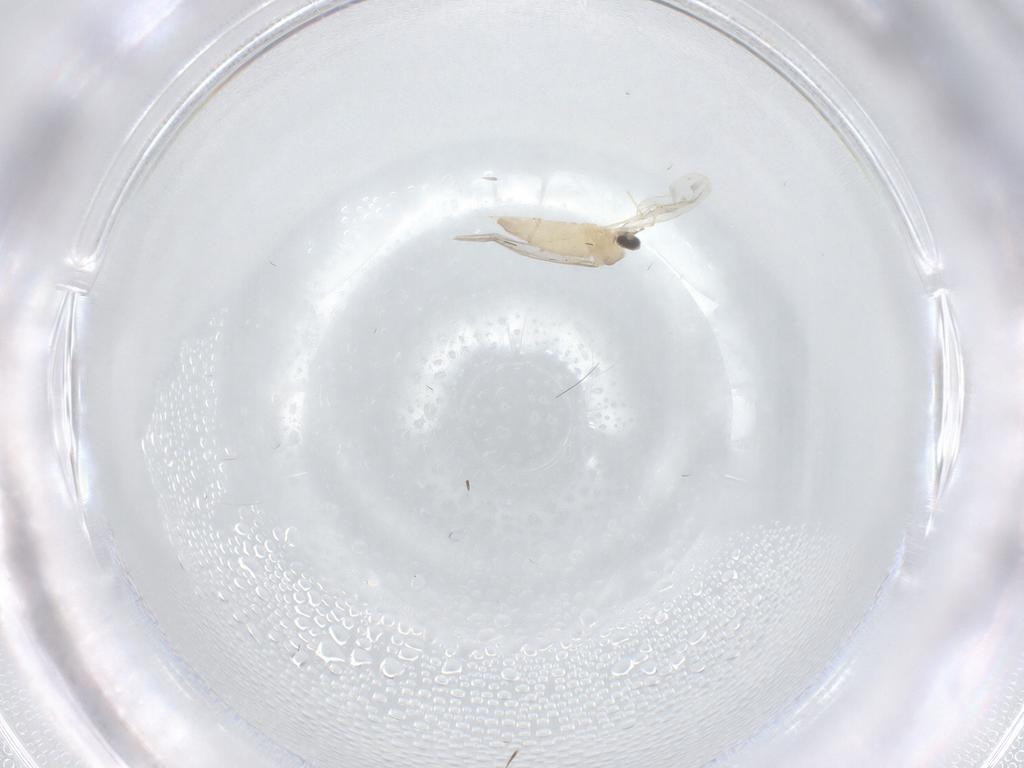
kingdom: Animalia
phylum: Arthropoda
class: Insecta
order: Diptera
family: Cecidomyiidae
